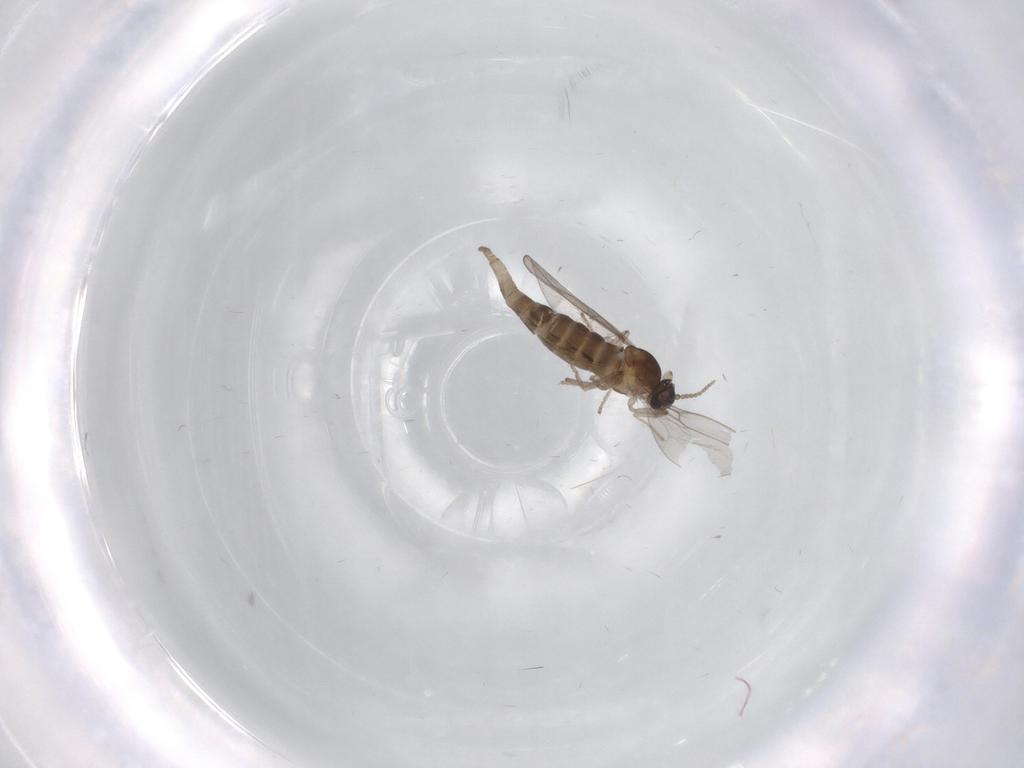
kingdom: Animalia
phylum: Arthropoda
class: Insecta
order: Diptera
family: Cecidomyiidae
